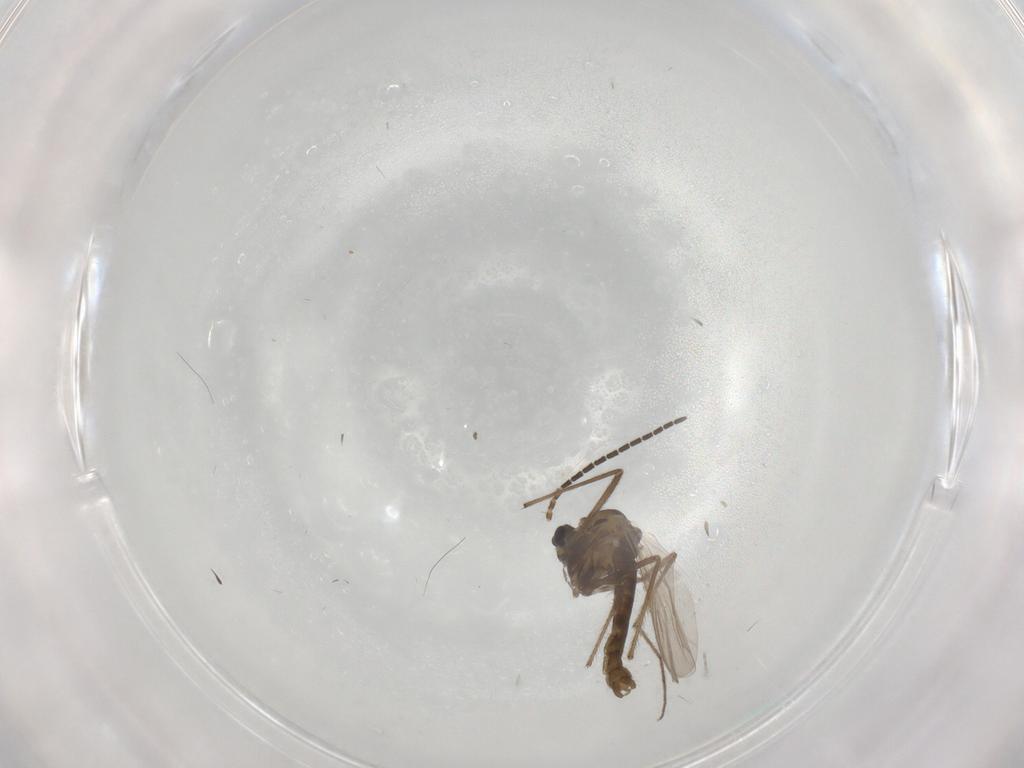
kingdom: Animalia
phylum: Arthropoda
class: Insecta
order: Diptera
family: Sciaridae
